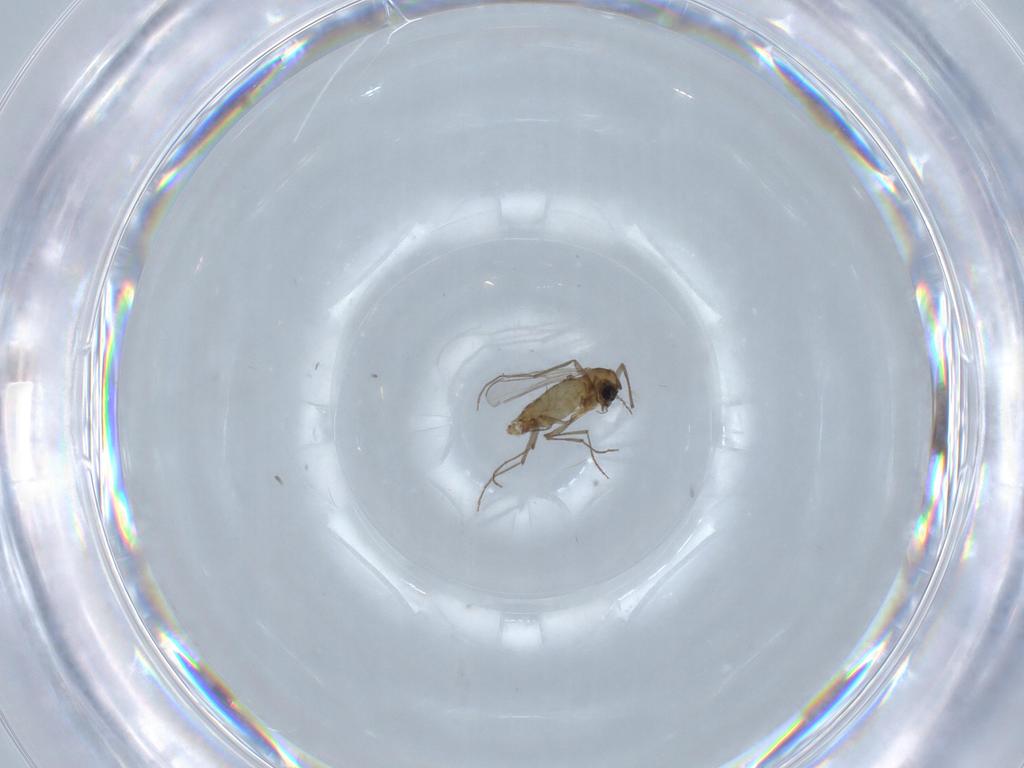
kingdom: Animalia
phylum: Arthropoda
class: Insecta
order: Diptera
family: Chironomidae
